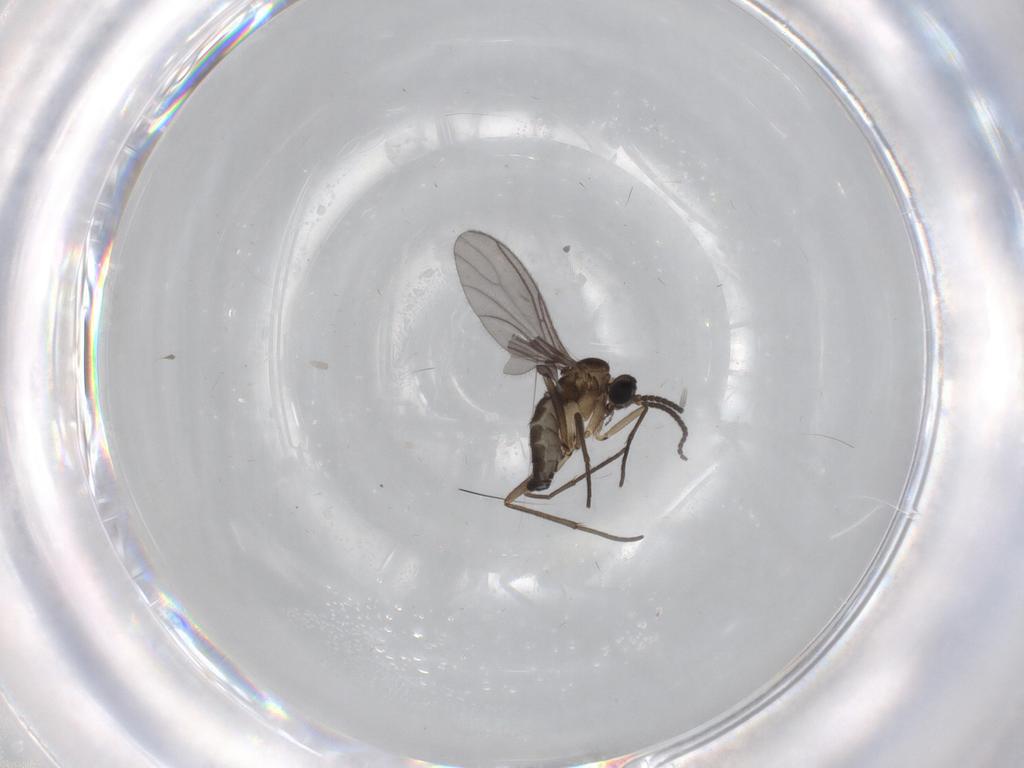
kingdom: Animalia
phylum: Arthropoda
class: Insecta
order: Diptera
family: Sciaridae
